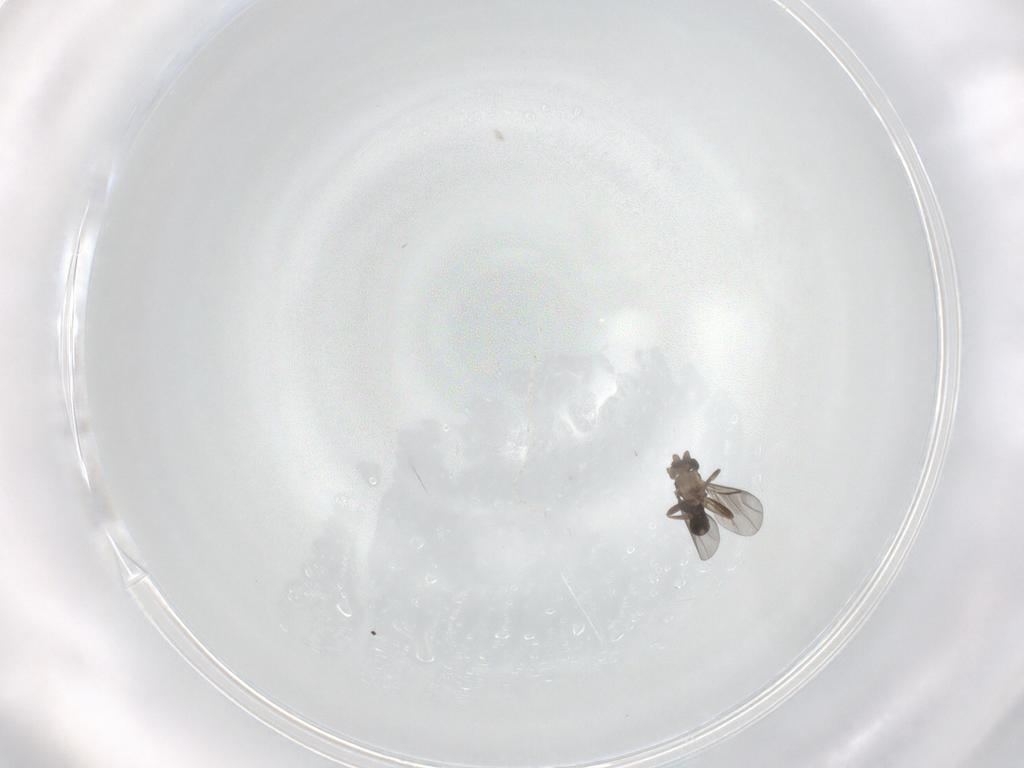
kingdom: Animalia
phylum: Arthropoda
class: Insecta
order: Diptera
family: Ephydridae
